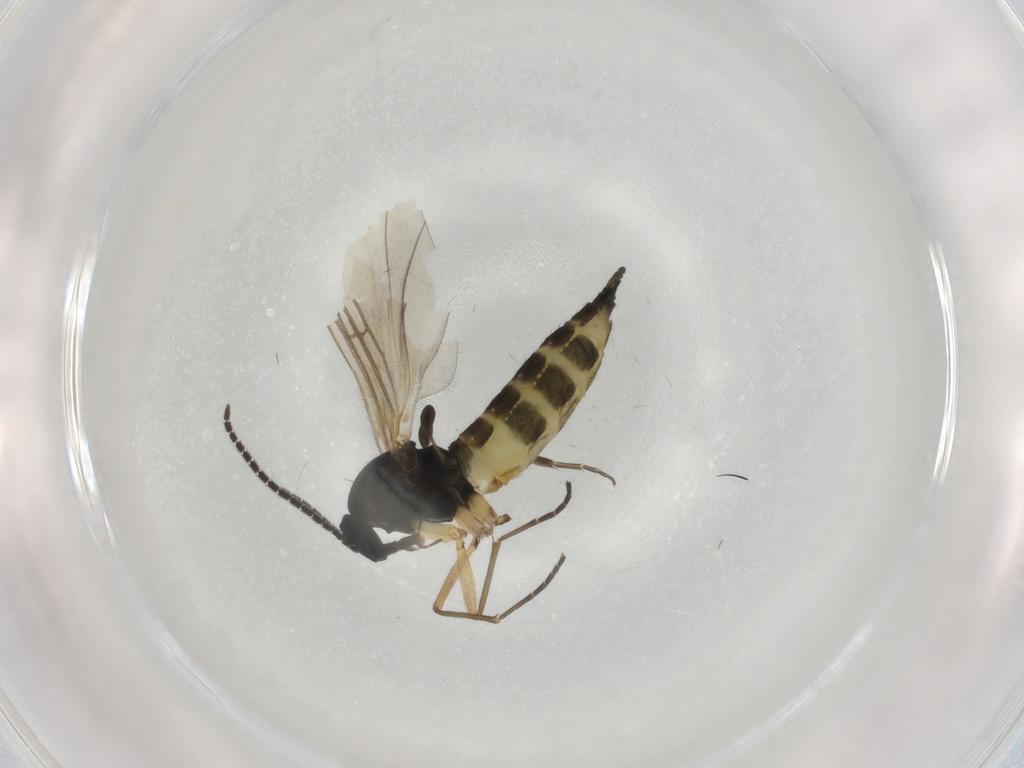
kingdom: Animalia
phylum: Arthropoda
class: Insecta
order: Diptera
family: Sciaridae
